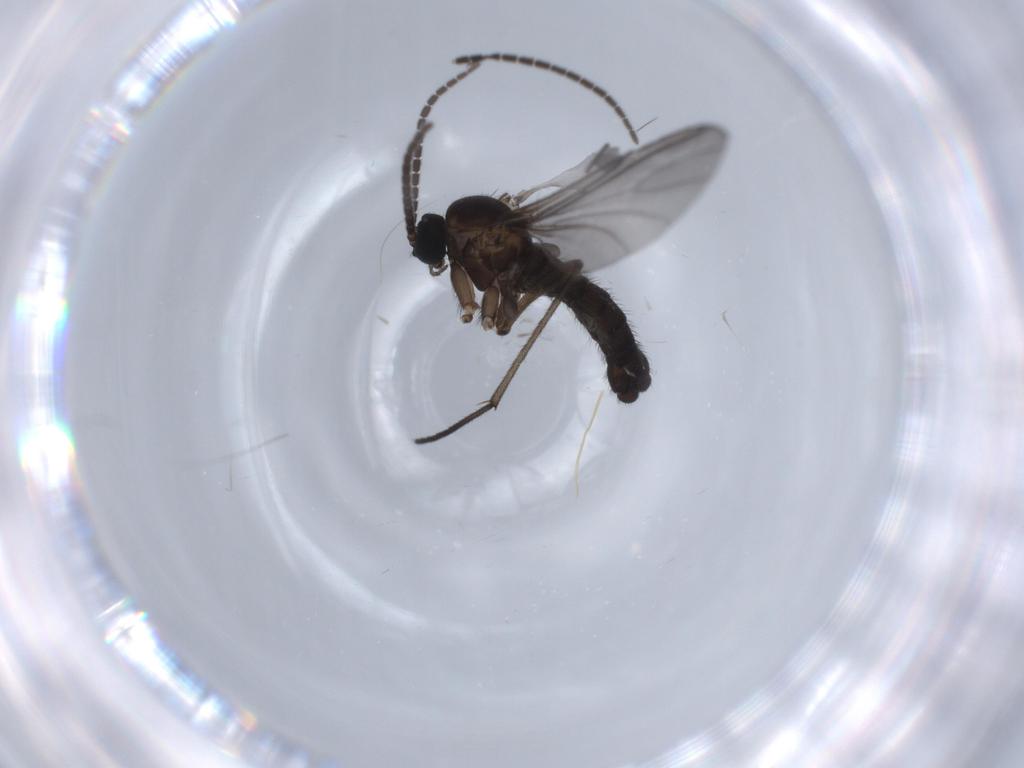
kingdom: Animalia
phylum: Arthropoda
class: Insecta
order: Diptera
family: Sciaridae
